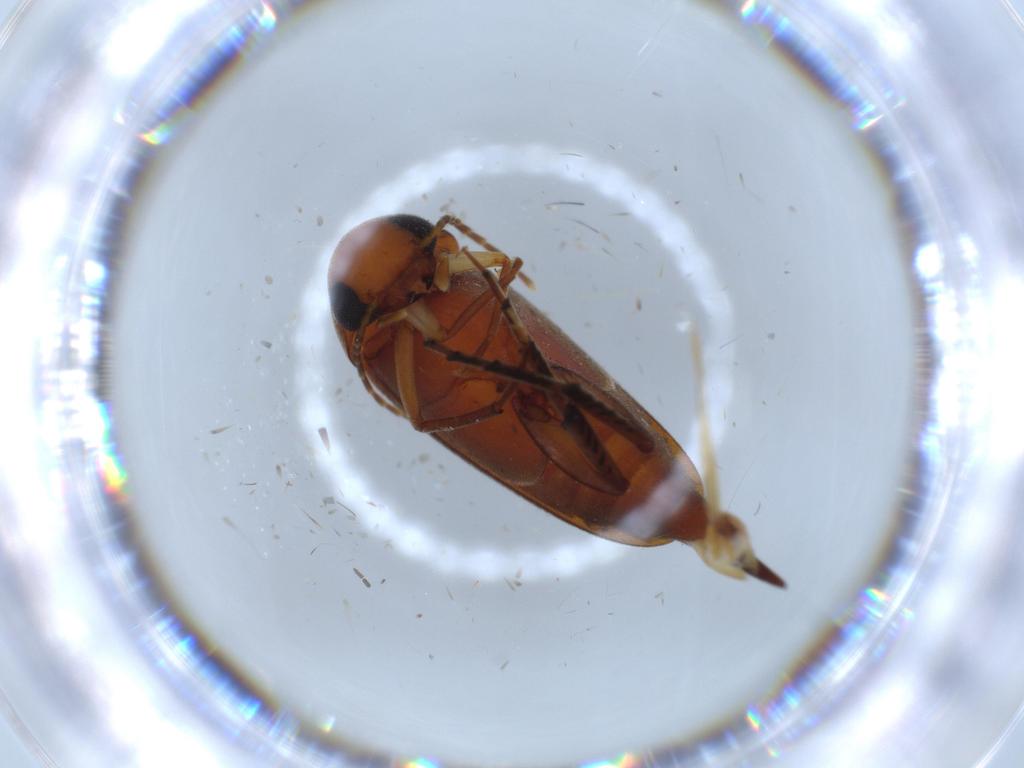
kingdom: Animalia
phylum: Arthropoda
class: Insecta
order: Coleoptera
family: Mordellidae
